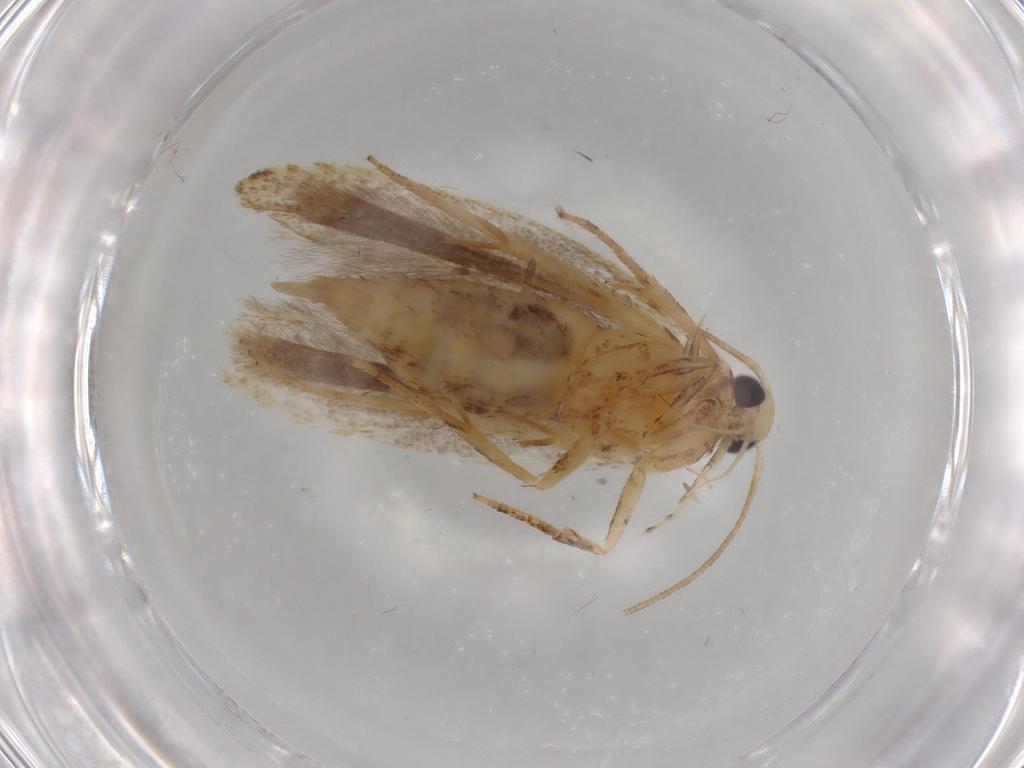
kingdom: Animalia
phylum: Arthropoda
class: Insecta
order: Lepidoptera
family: Gelechiidae
